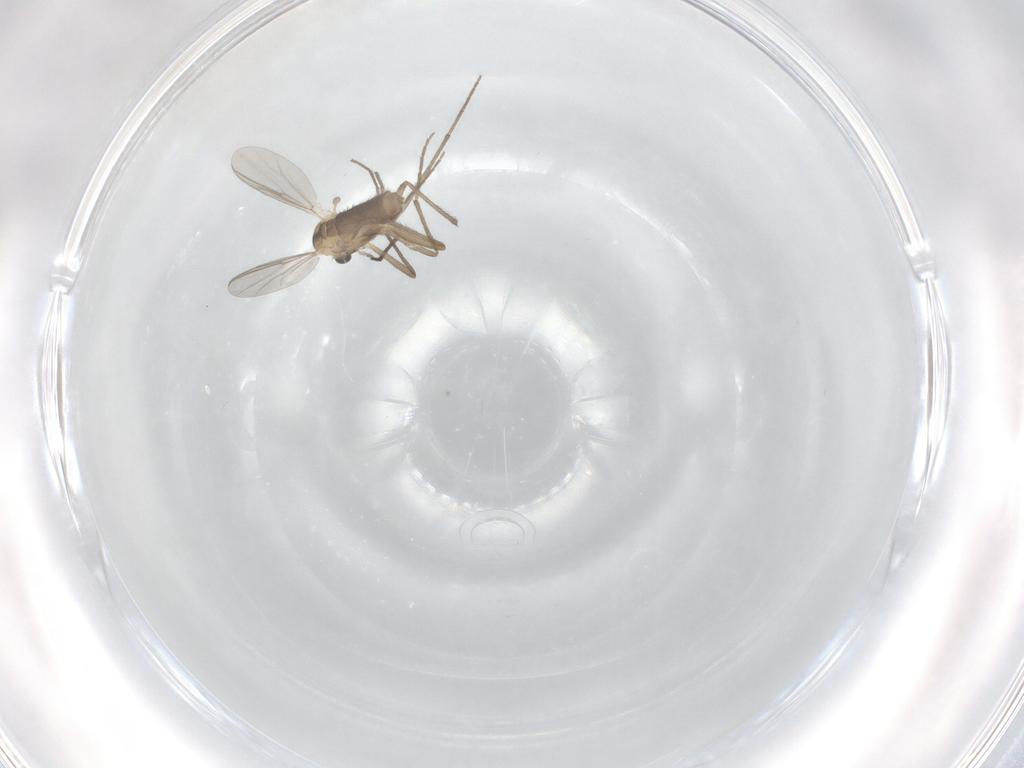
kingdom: Animalia
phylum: Arthropoda
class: Insecta
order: Diptera
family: Chironomidae
